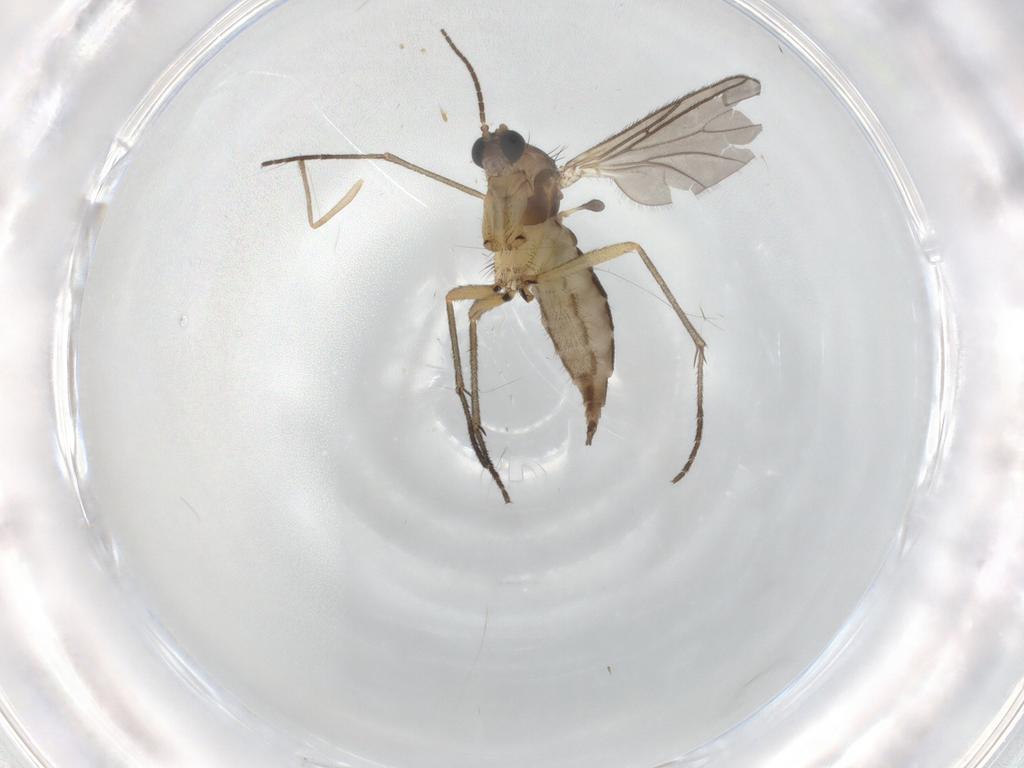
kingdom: Animalia
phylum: Arthropoda
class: Insecta
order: Diptera
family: Sciaridae
